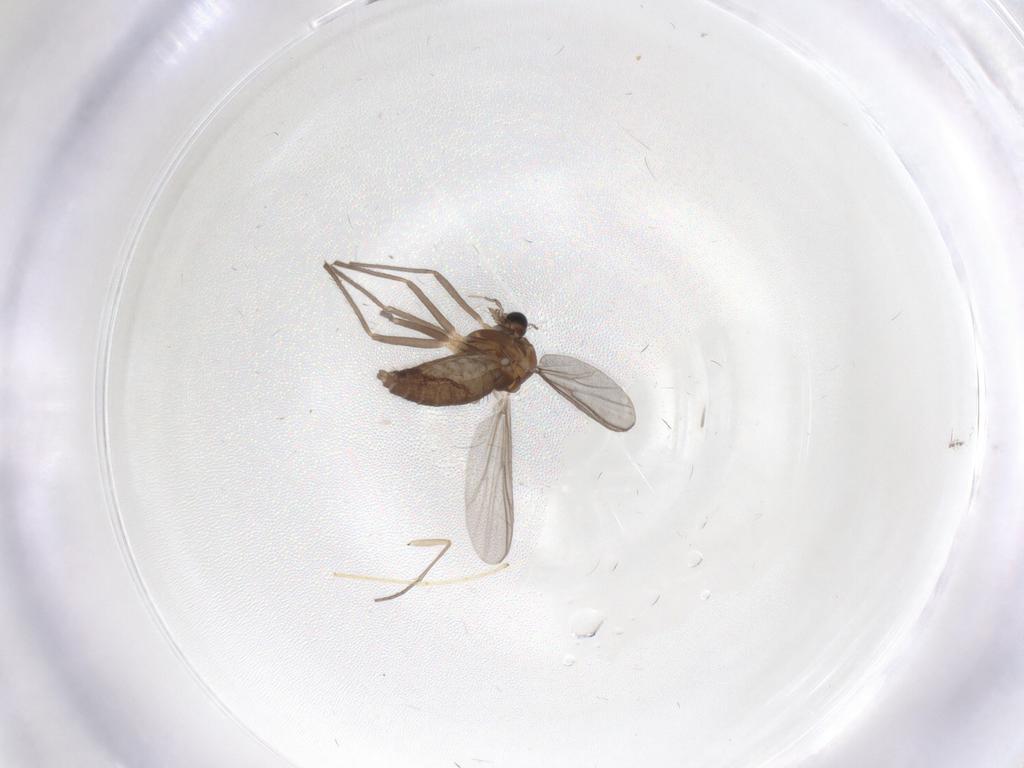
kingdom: Animalia
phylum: Arthropoda
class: Insecta
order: Diptera
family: Chironomidae
